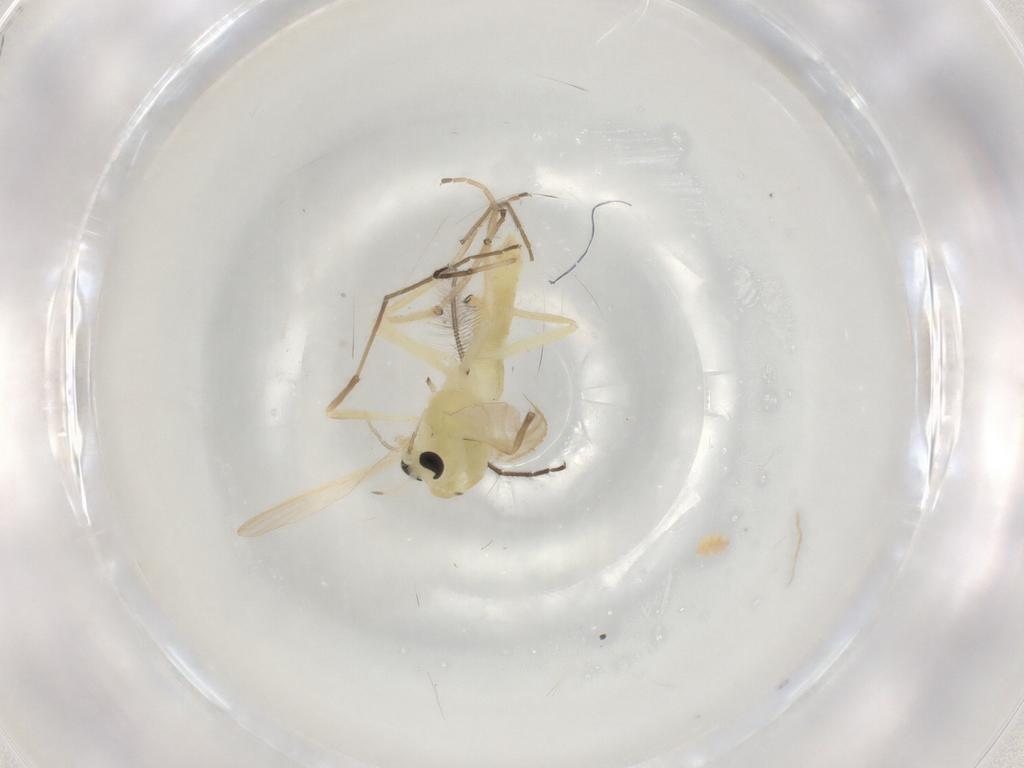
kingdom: Animalia
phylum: Arthropoda
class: Insecta
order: Diptera
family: Chironomidae
